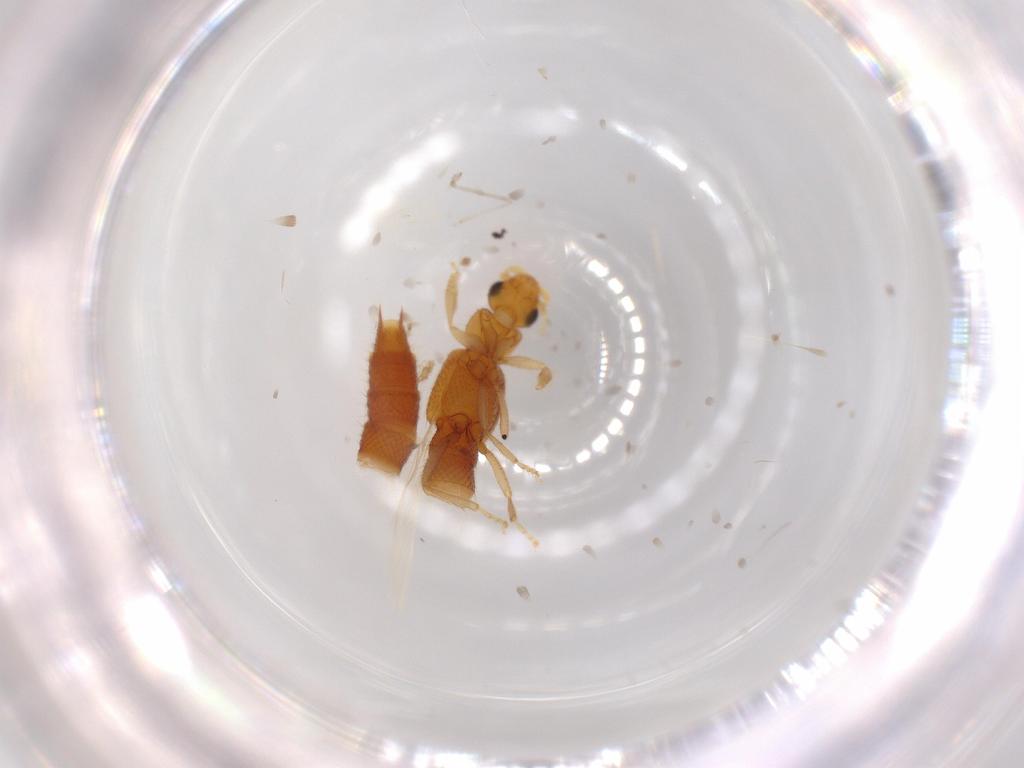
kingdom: Animalia
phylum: Arthropoda
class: Insecta
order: Coleoptera
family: Staphylinidae
